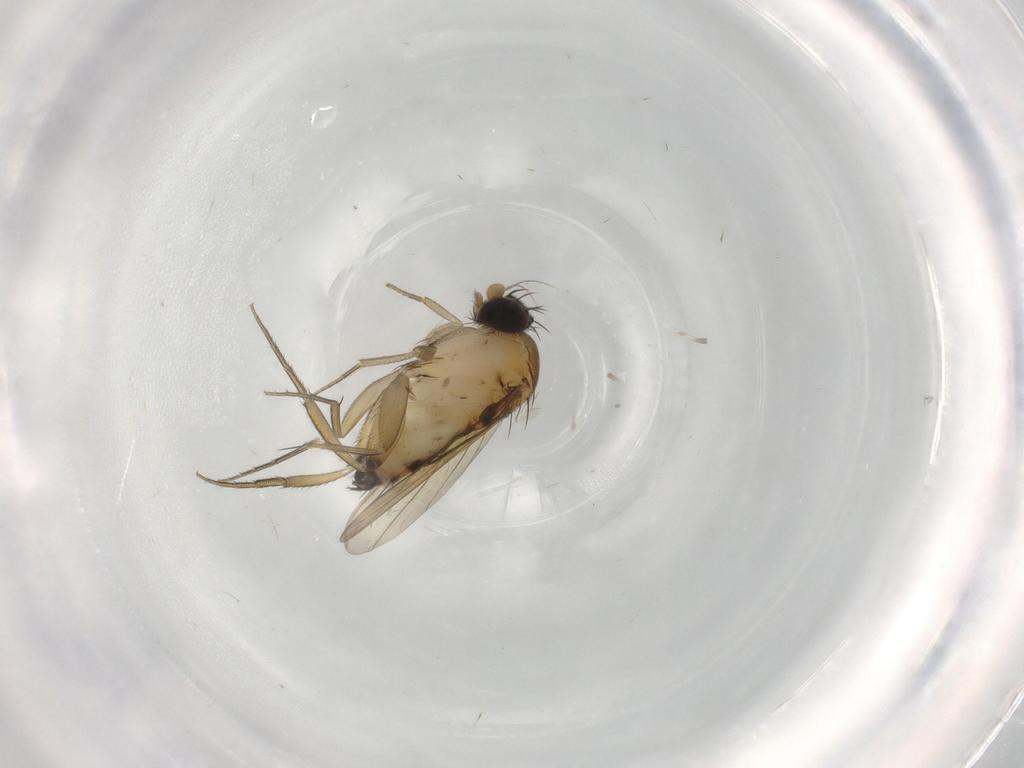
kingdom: Animalia
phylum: Arthropoda
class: Insecta
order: Diptera
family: Phoridae
